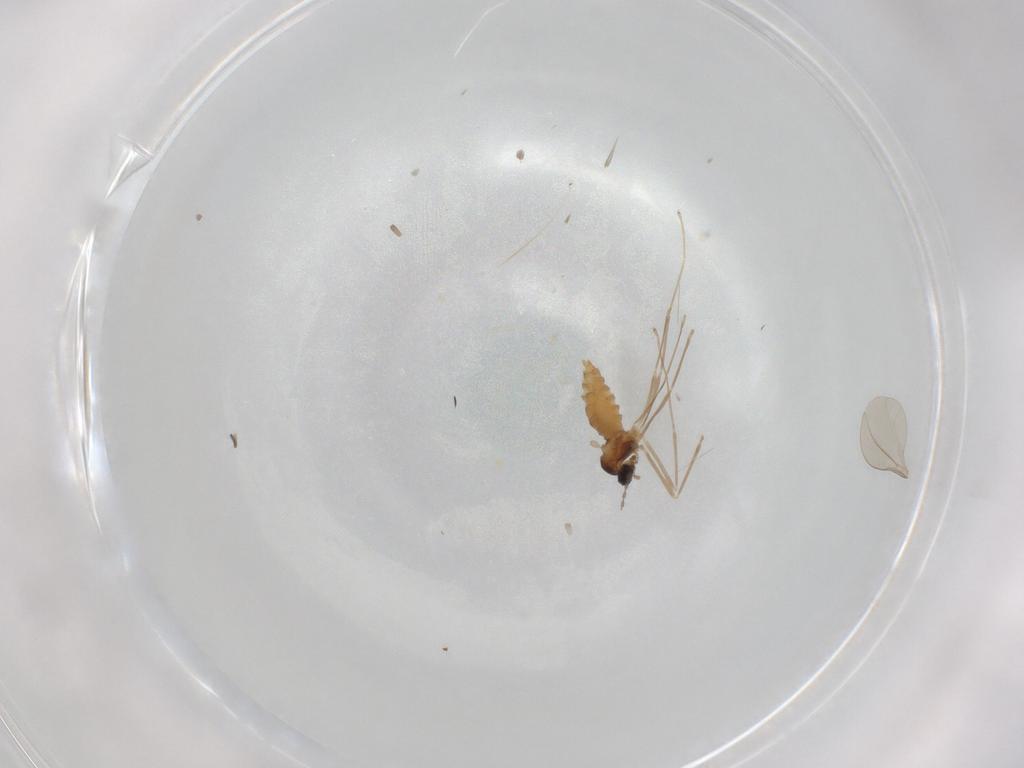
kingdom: Animalia
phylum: Arthropoda
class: Insecta
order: Diptera
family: Cecidomyiidae
